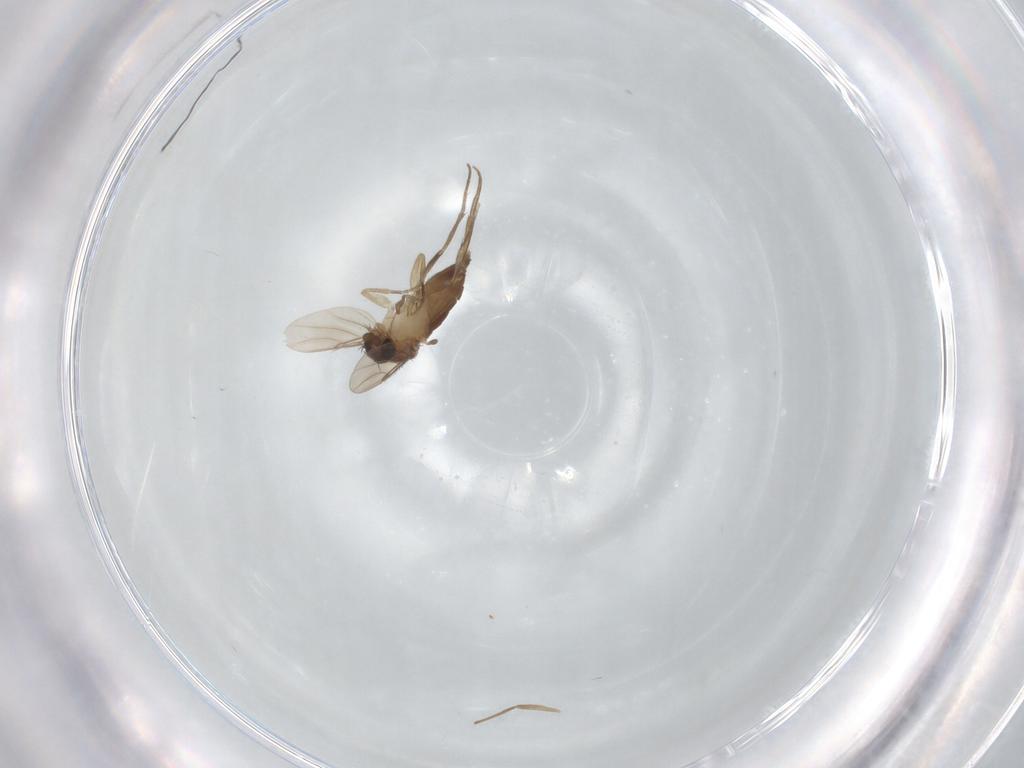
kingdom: Animalia
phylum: Arthropoda
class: Insecta
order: Diptera
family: Chironomidae
